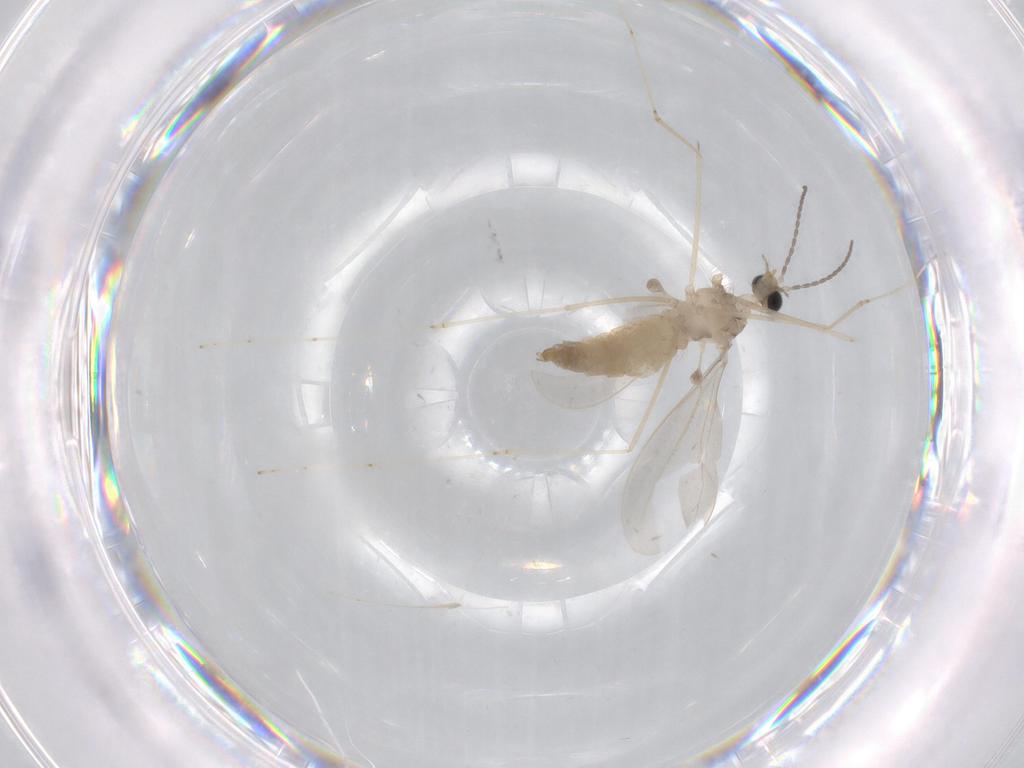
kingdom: Animalia
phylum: Arthropoda
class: Insecta
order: Diptera
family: Cecidomyiidae
